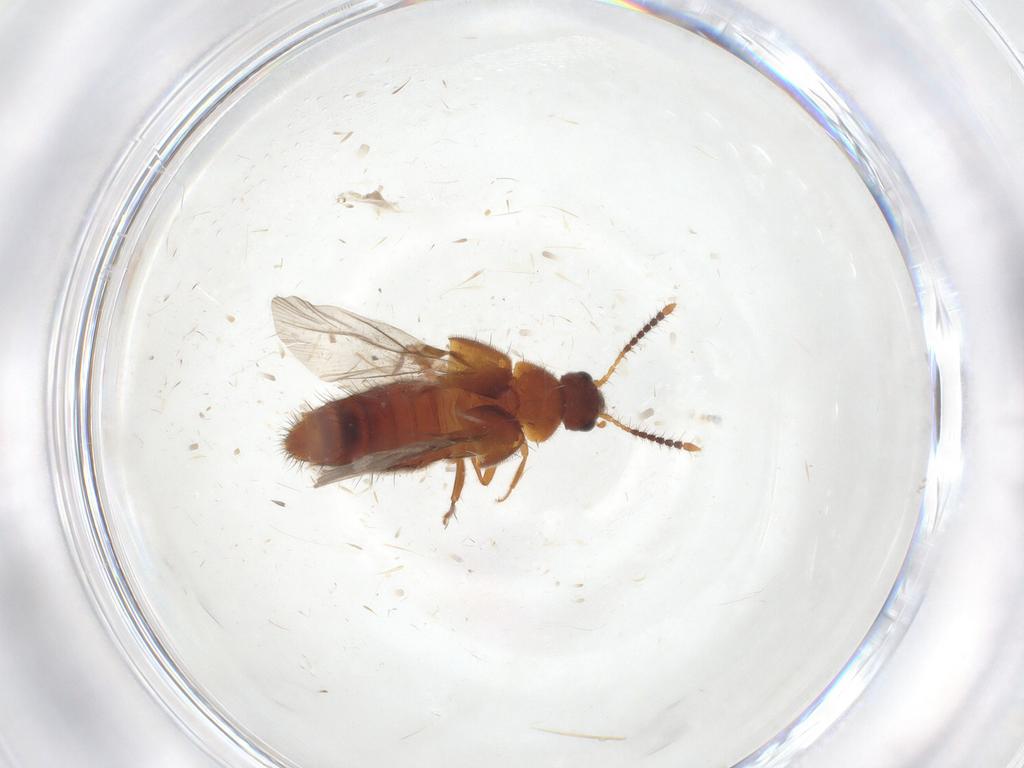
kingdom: Animalia
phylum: Arthropoda
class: Insecta
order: Coleoptera
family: Staphylinidae
